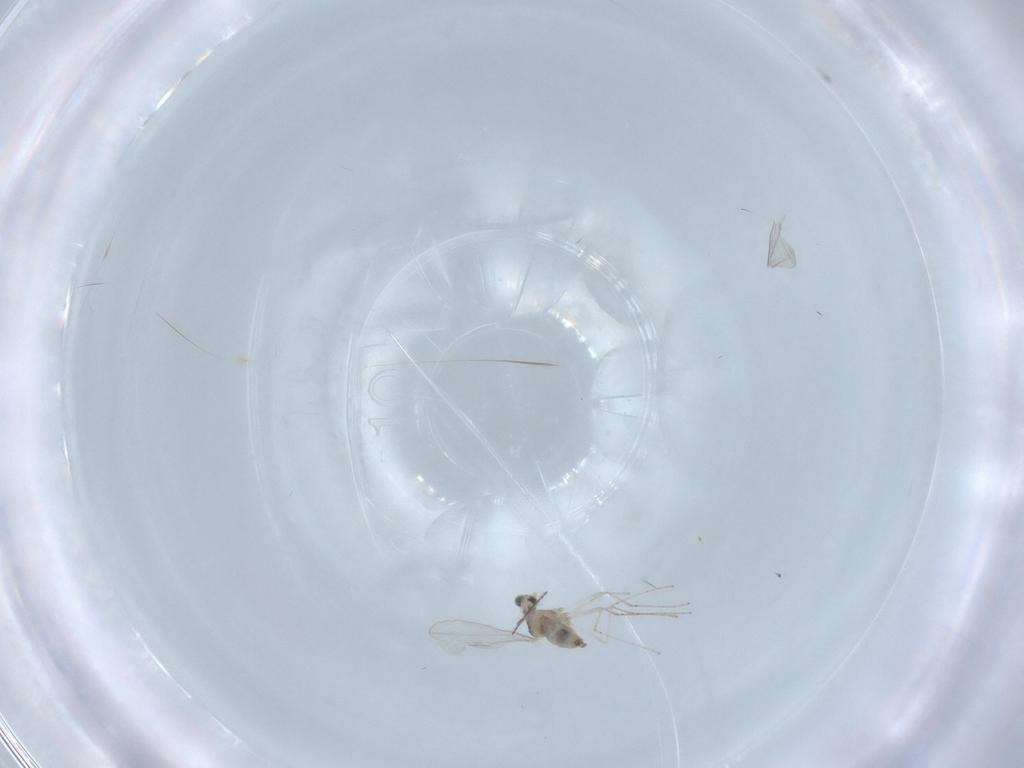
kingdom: Animalia
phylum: Arthropoda
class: Insecta
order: Diptera
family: Cecidomyiidae
